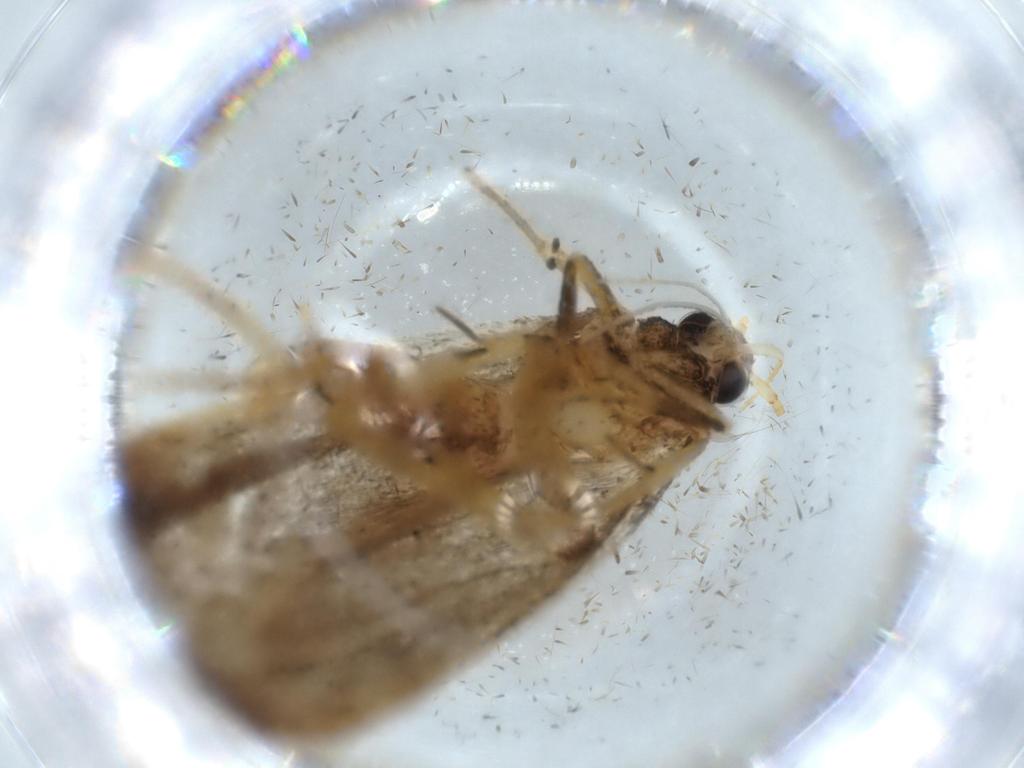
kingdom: Animalia
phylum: Arthropoda
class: Insecta
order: Lepidoptera
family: Lecithoceridae
